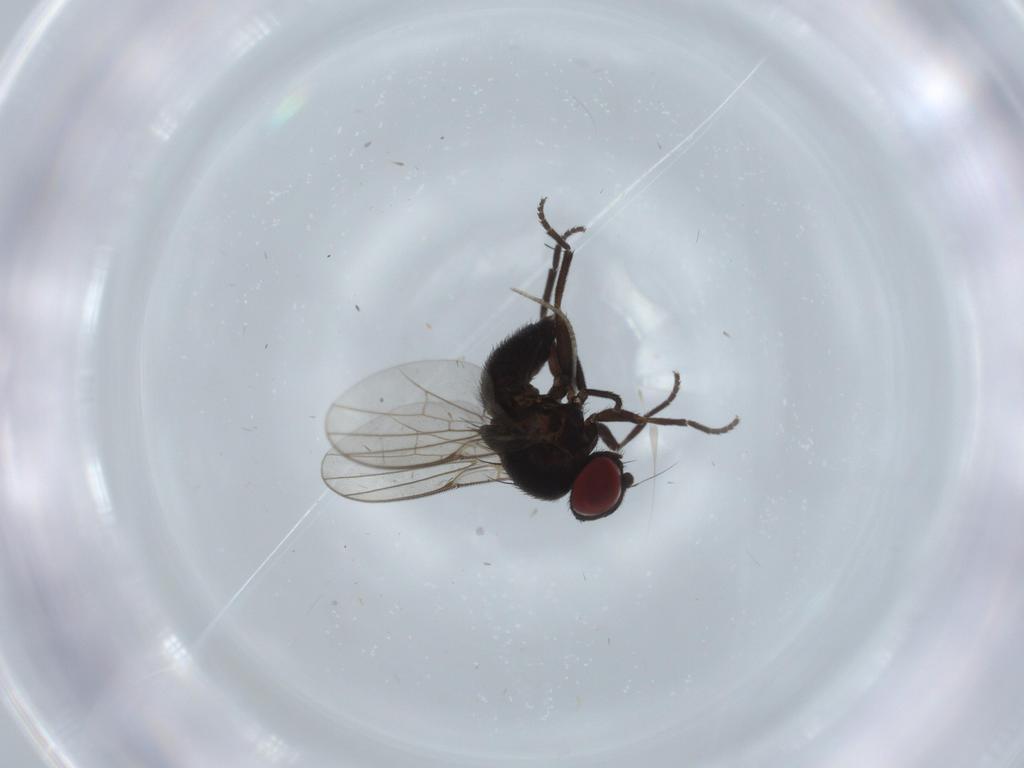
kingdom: Animalia
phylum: Arthropoda
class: Insecta
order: Diptera
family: Agromyzidae
